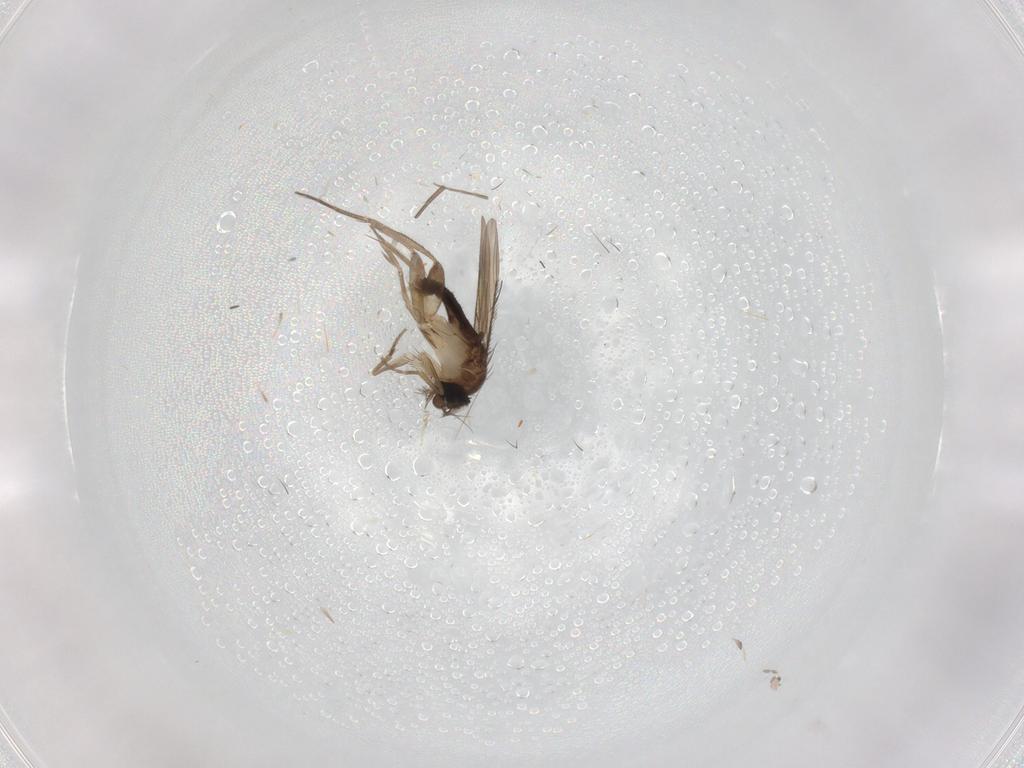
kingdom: Animalia
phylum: Arthropoda
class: Insecta
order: Diptera
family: Phoridae
